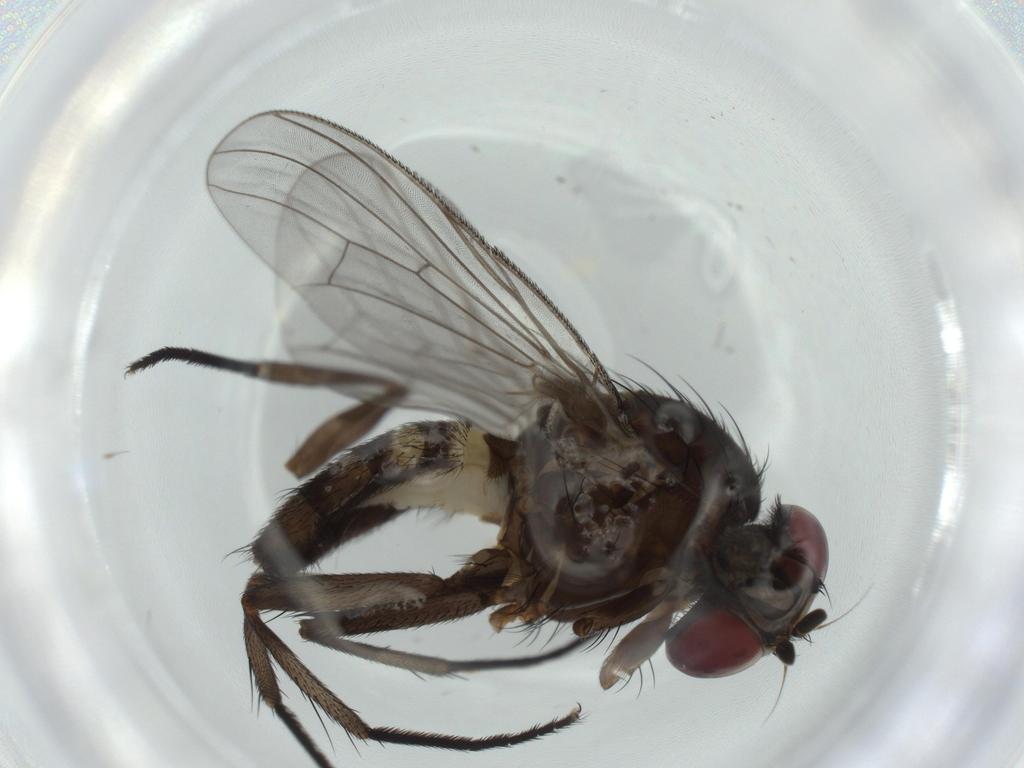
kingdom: Animalia
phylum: Arthropoda
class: Insecta
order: Diptera
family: Fannia
